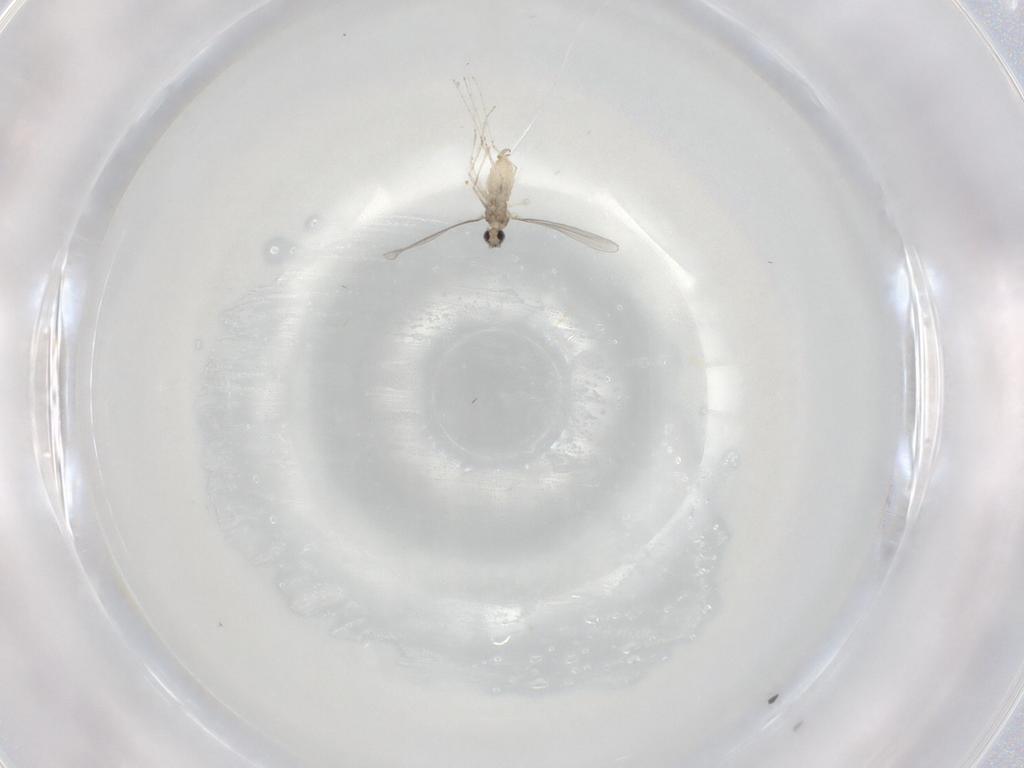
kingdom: Animalia
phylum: Arthropoda
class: Insecta
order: Diptera
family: Cecidomyiidae
